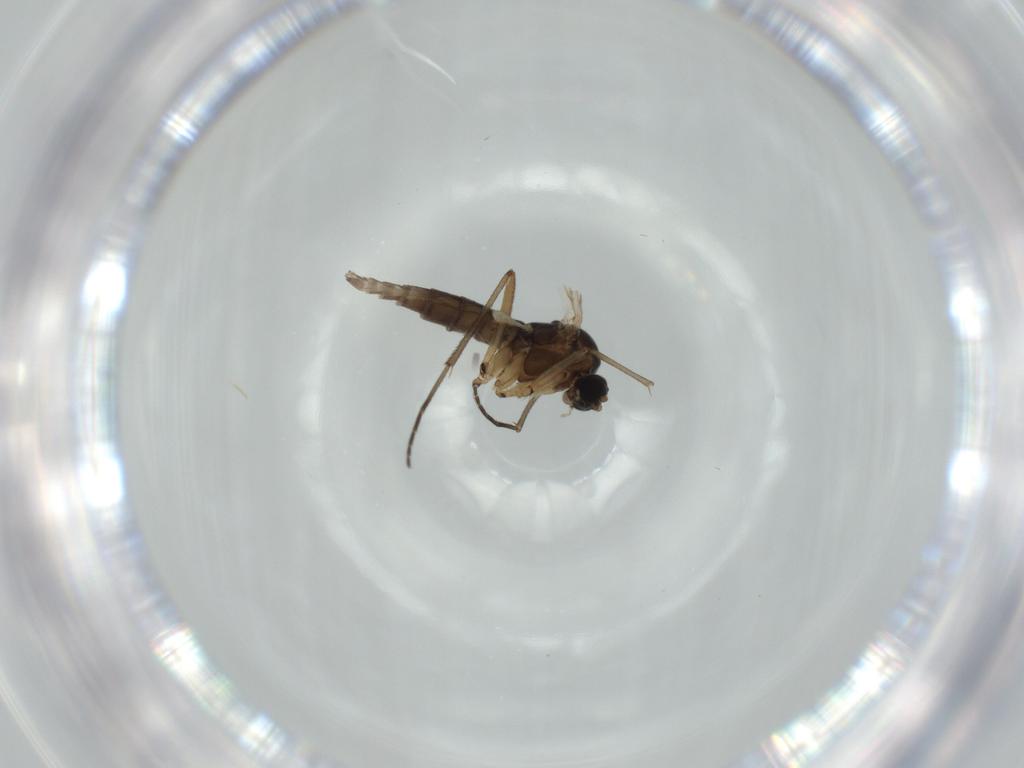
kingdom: Animalia
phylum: Arthropoda
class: Insecta
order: Diptera
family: Sciaridae
